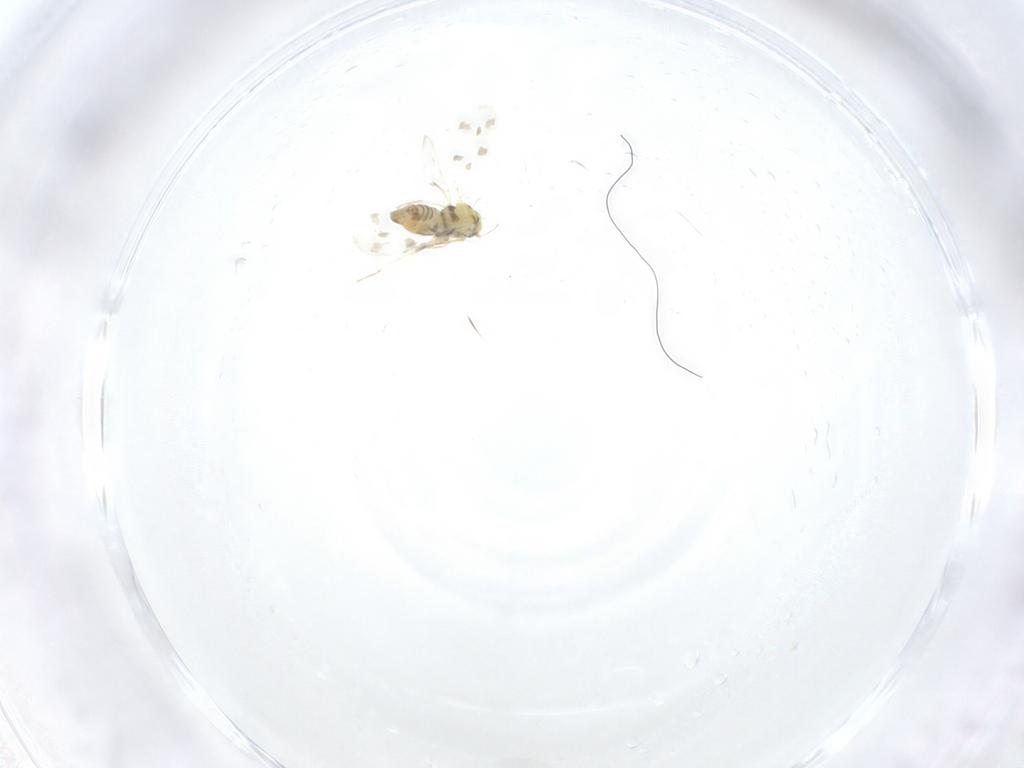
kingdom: Animalia
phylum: Arthropoda
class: Insecta
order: Hemiptera
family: Aleyrodidae
